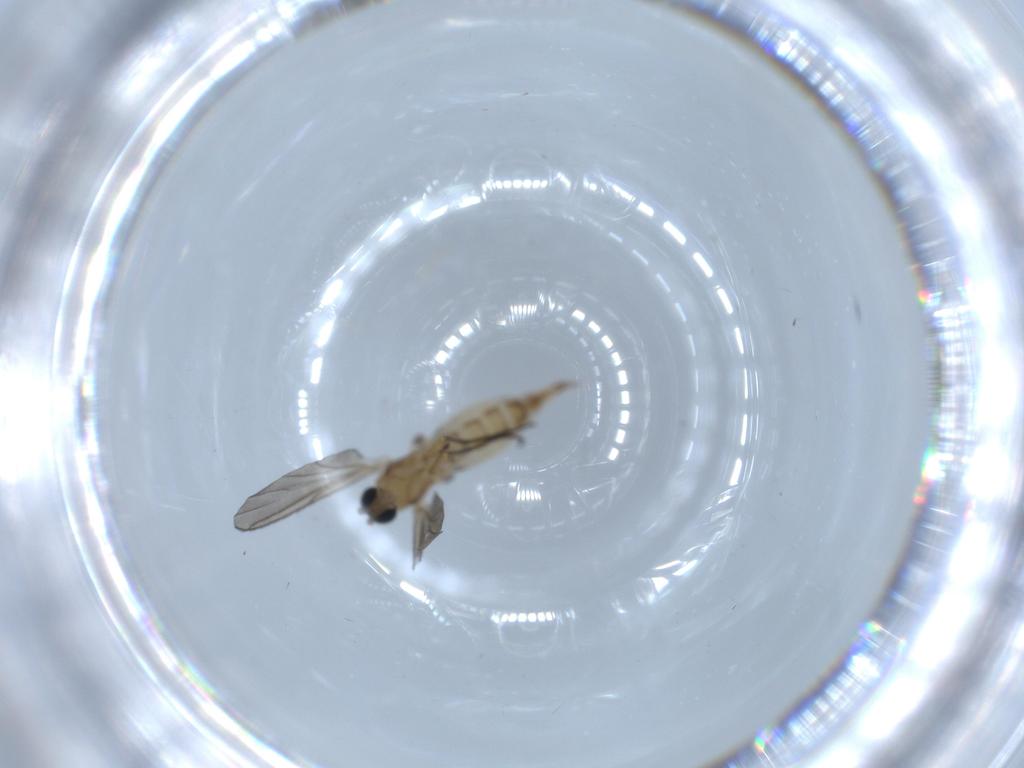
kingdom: Animalia
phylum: Arthropoda
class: Insecta
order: Diptera
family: Sciaridae
